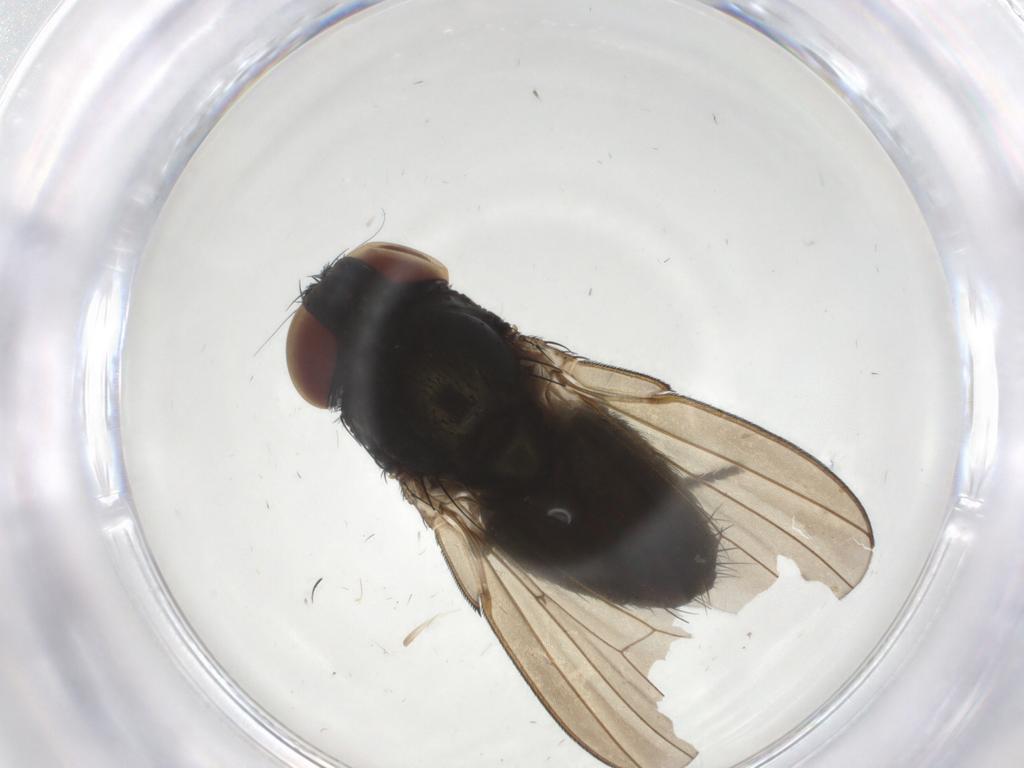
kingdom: Animalia
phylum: Arthropoda
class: Insecta
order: Diptera
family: Milichiidae
